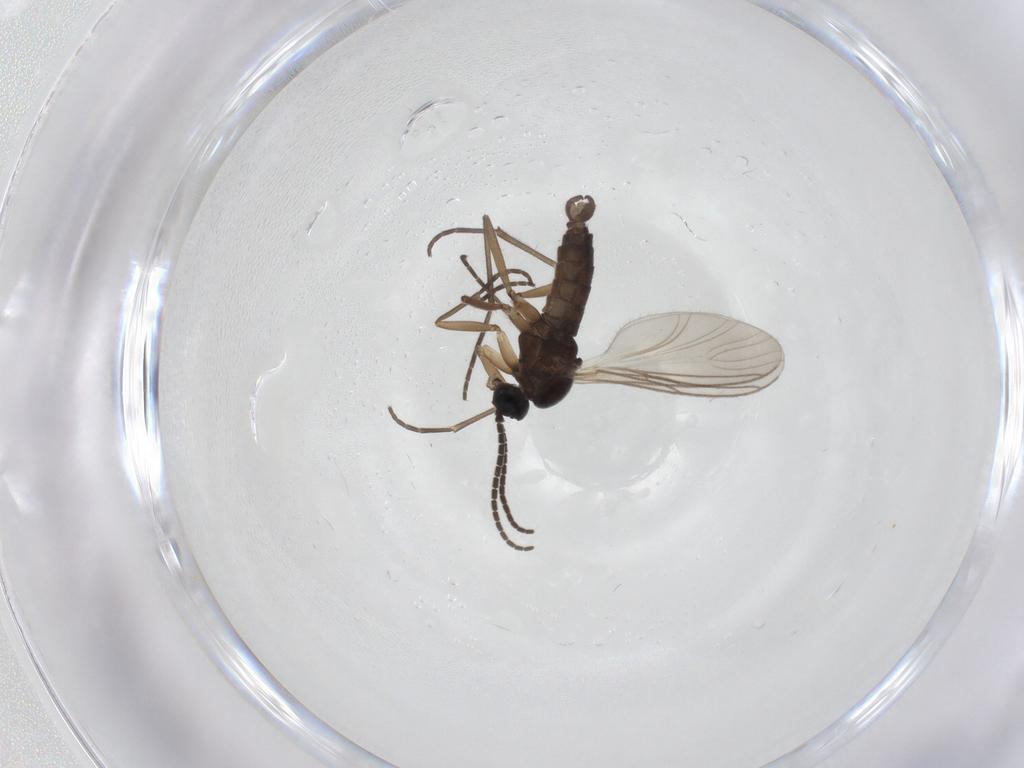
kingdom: Animalia
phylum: Arthropoda
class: Insecta
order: Diptera
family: Sciaridae
